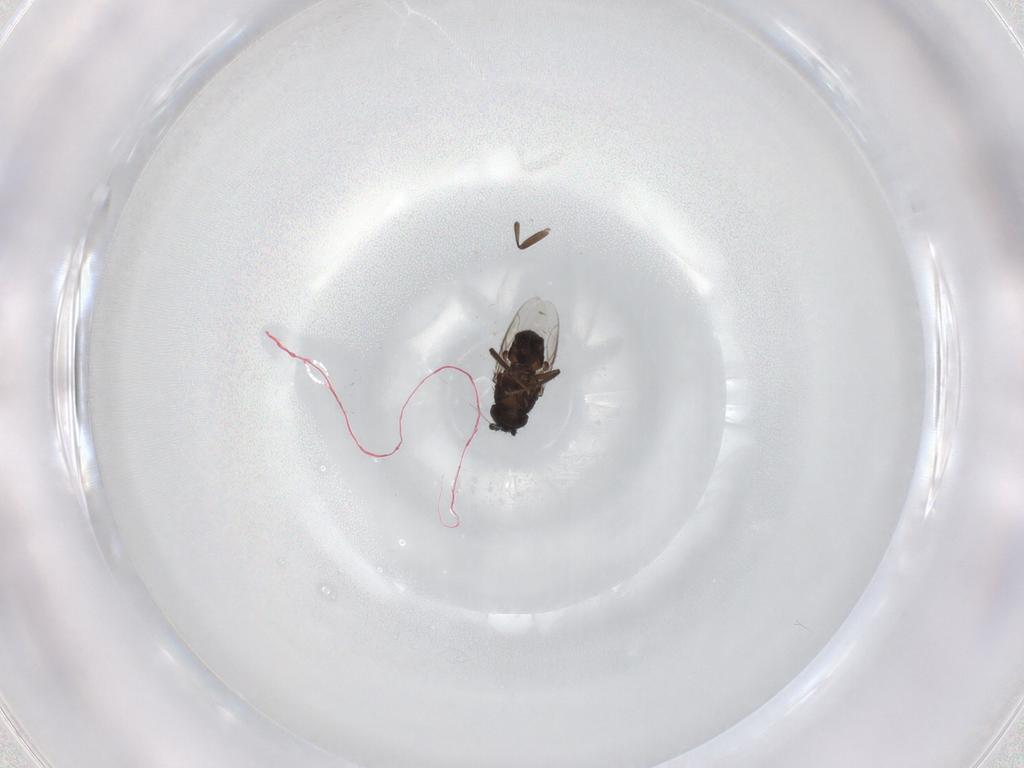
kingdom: Animalia
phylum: Arthropoda
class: Insecta
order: Diptera
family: Sphaeroceridae
